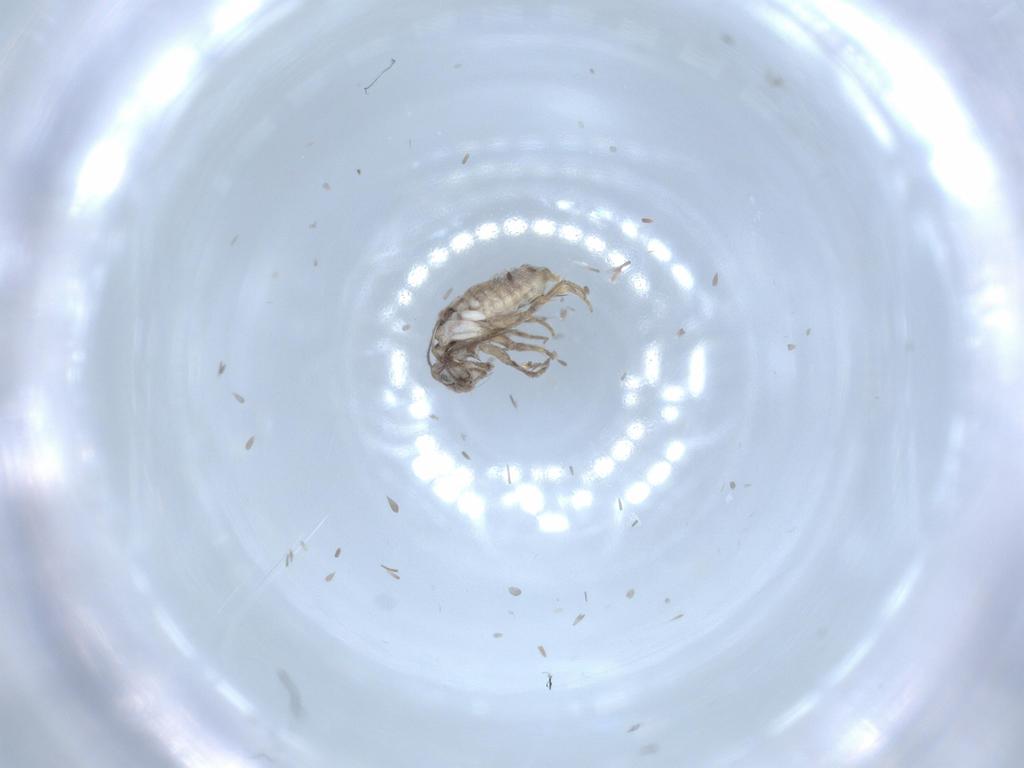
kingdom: Animalia
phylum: Arthropoda
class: Insecta
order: Psocodea
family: Lepidopsocidae
